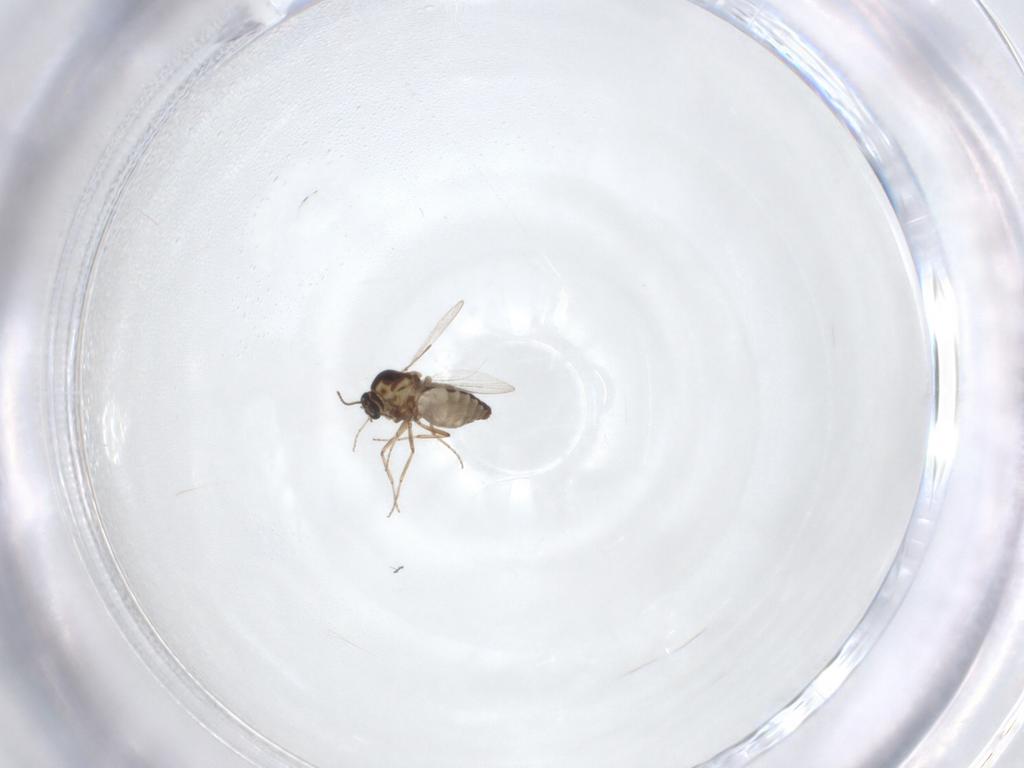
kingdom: Animalia
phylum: Arthropoda
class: Insecta
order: Diptera
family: Ceratopogonidae
